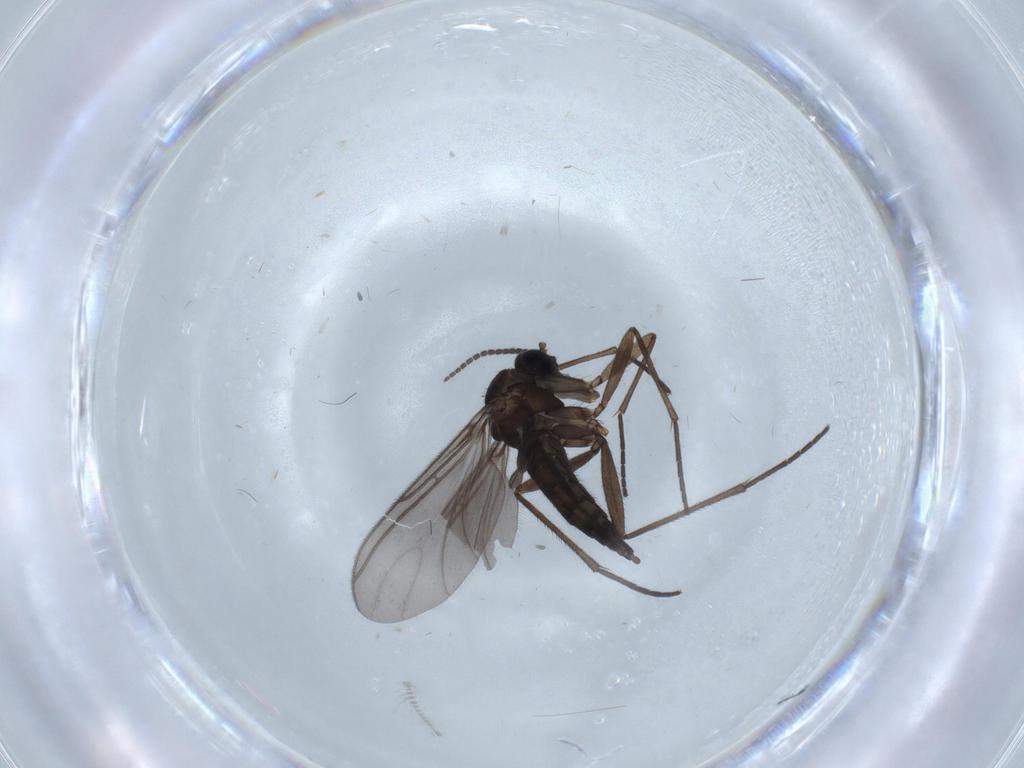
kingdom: Animalia
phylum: Arthropoda
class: Insecta
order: Diptera
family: Sciaridae
